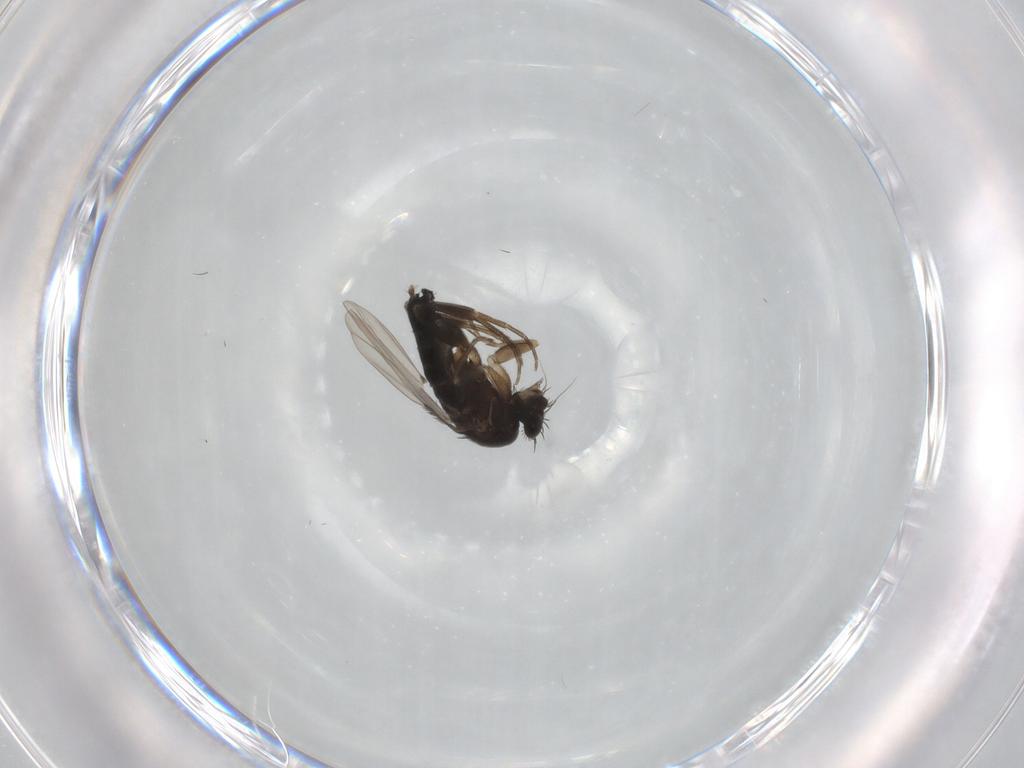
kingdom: Animalia
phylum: Arthropoda
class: Insecta
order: Diptera
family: Phoridae
